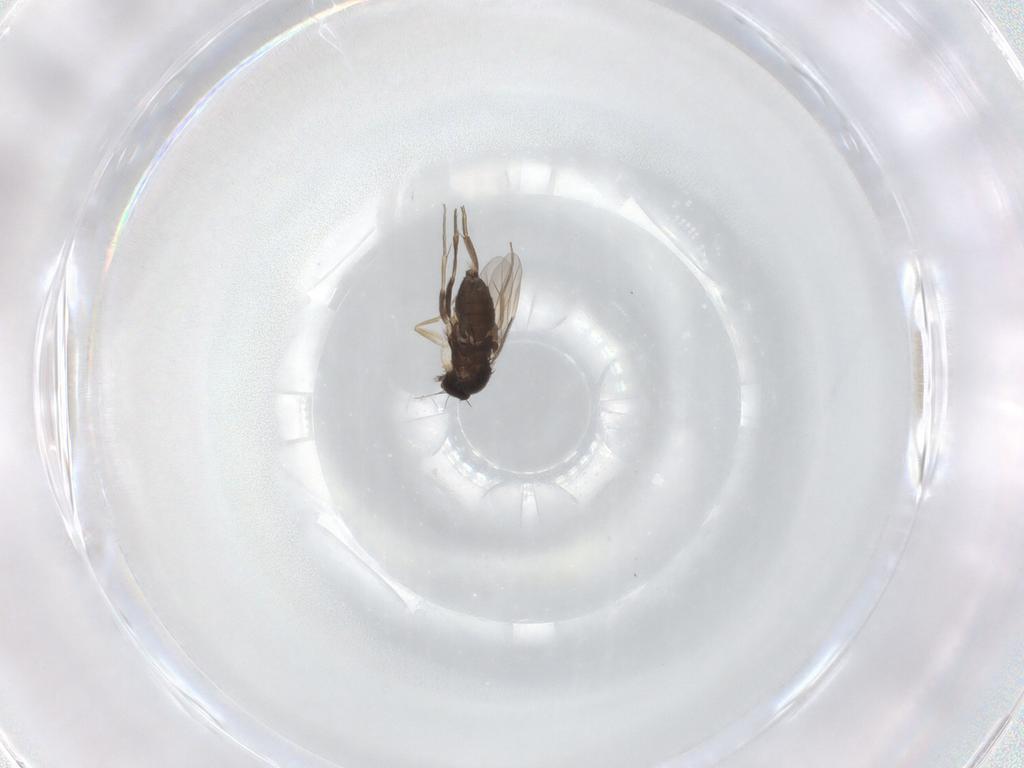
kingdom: Animalia
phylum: Arthropoda
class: Insecta
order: Diptera
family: Phoridae
